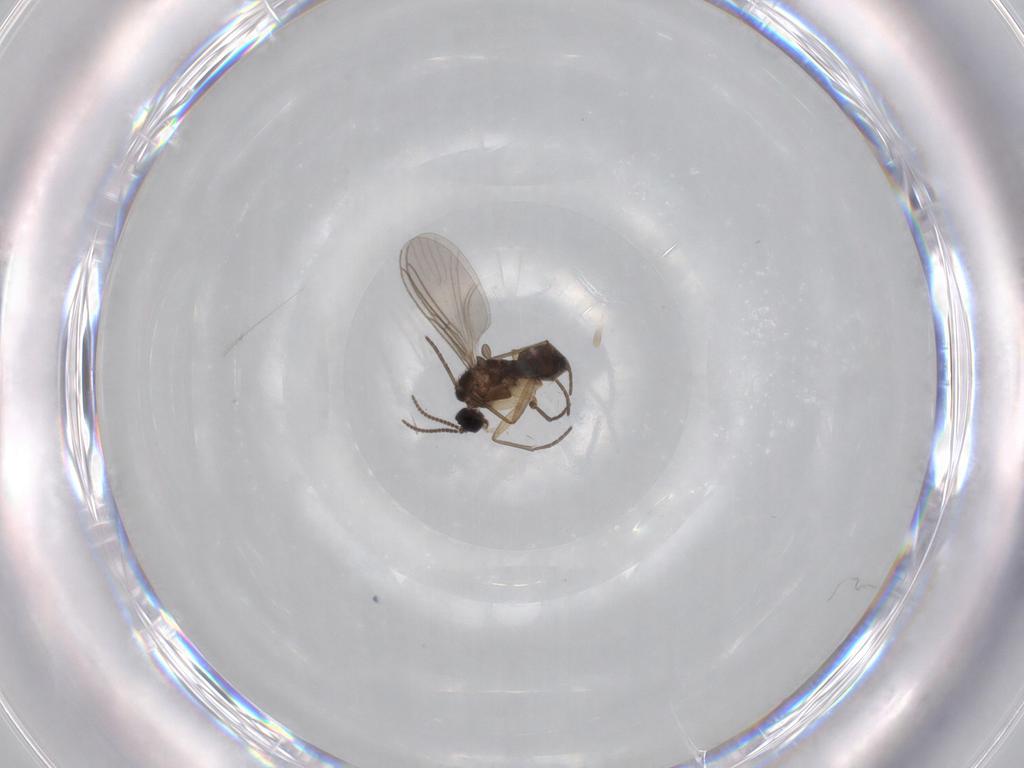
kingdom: Animalia
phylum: Arthropoda
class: Insecta
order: Diptera
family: Sciaridae
